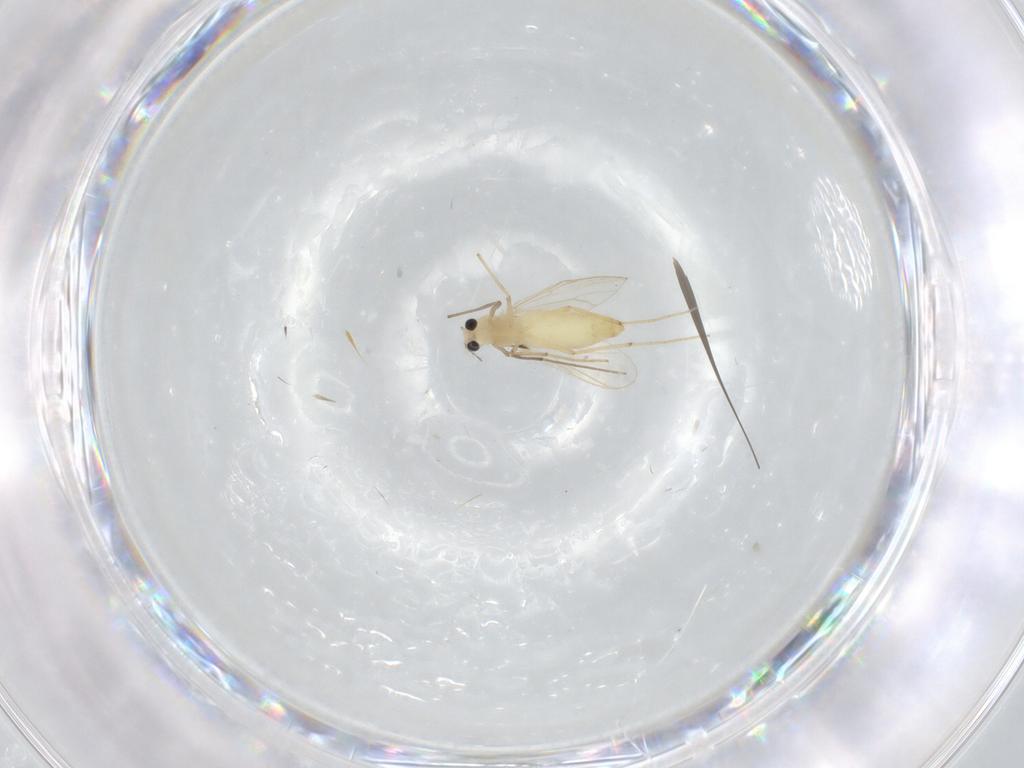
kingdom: Animalia
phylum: Arthropoda
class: Insecta
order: Diptera
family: Chironomidae
